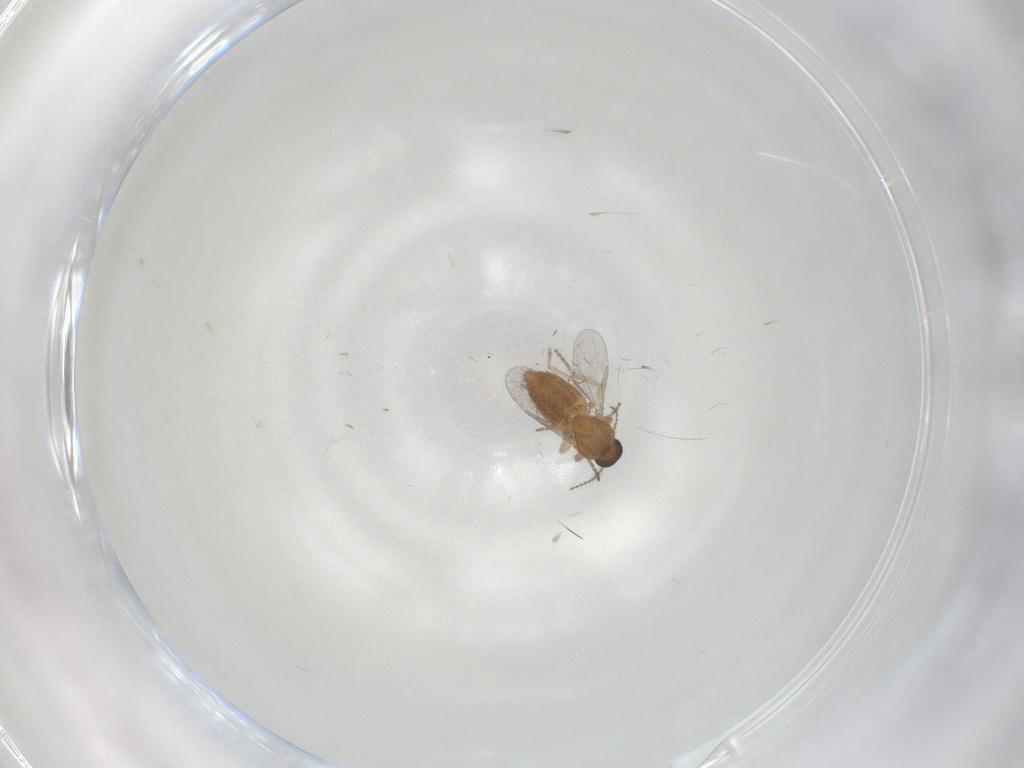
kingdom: Animalia
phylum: Arthropoda
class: Insecta
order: Diptera
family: Ceratopogonidae
